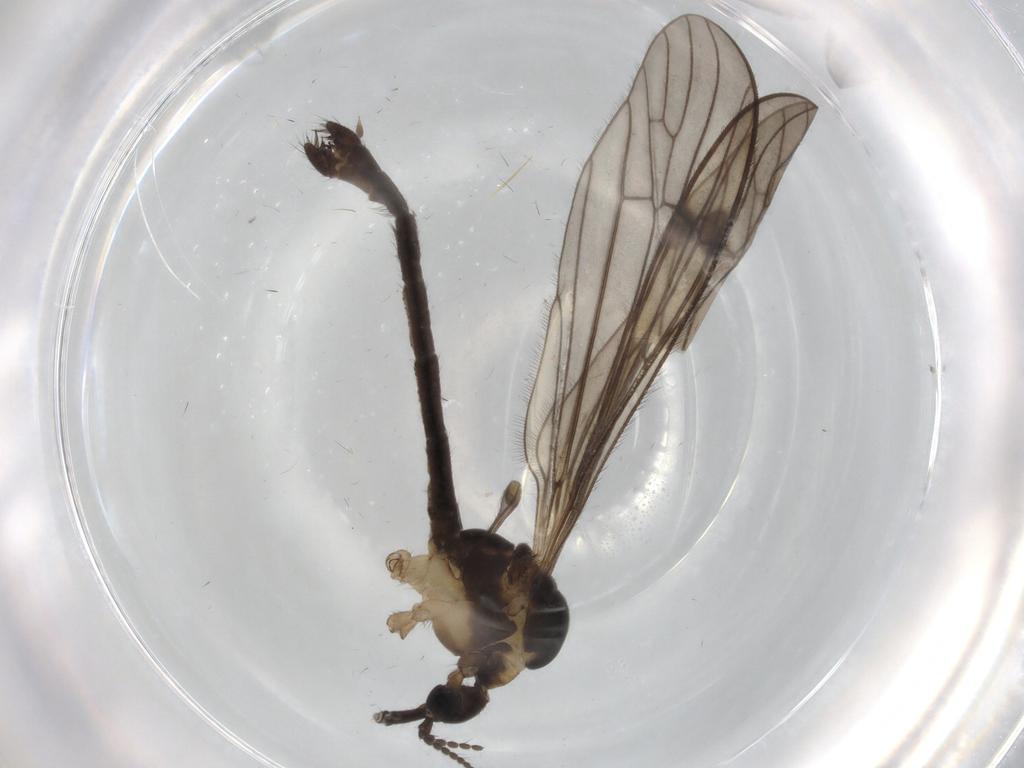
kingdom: Animalia
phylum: Arthropoda
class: Insecta
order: Diptera
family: Limoniidae
